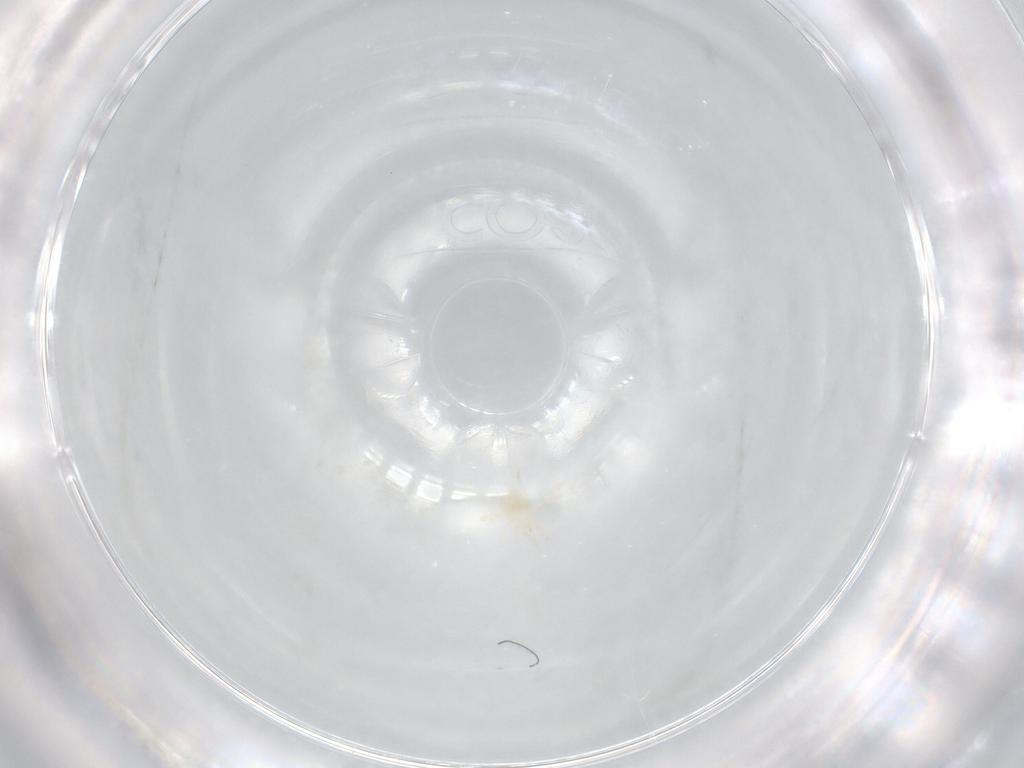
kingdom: Animalia
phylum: Arthropoda
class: Arachnida
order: Mesostigmata
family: Phytoseiidae
